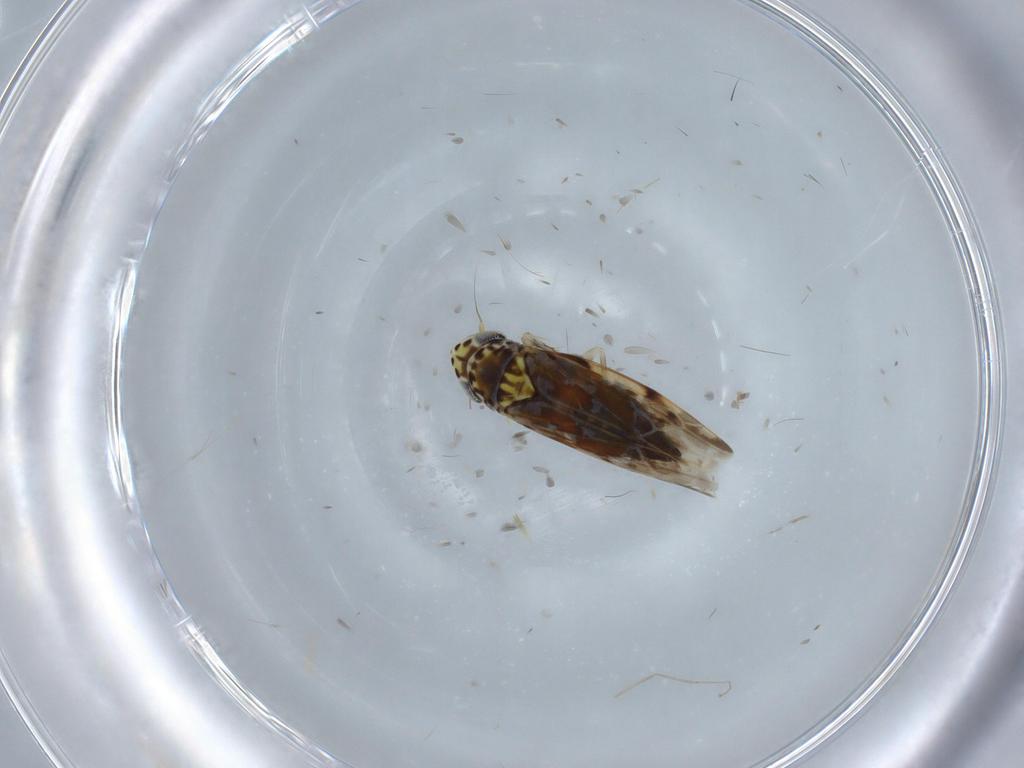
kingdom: Animalia
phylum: Arthropoda
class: Insecta
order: Hemiptera
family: Cicadellidae
